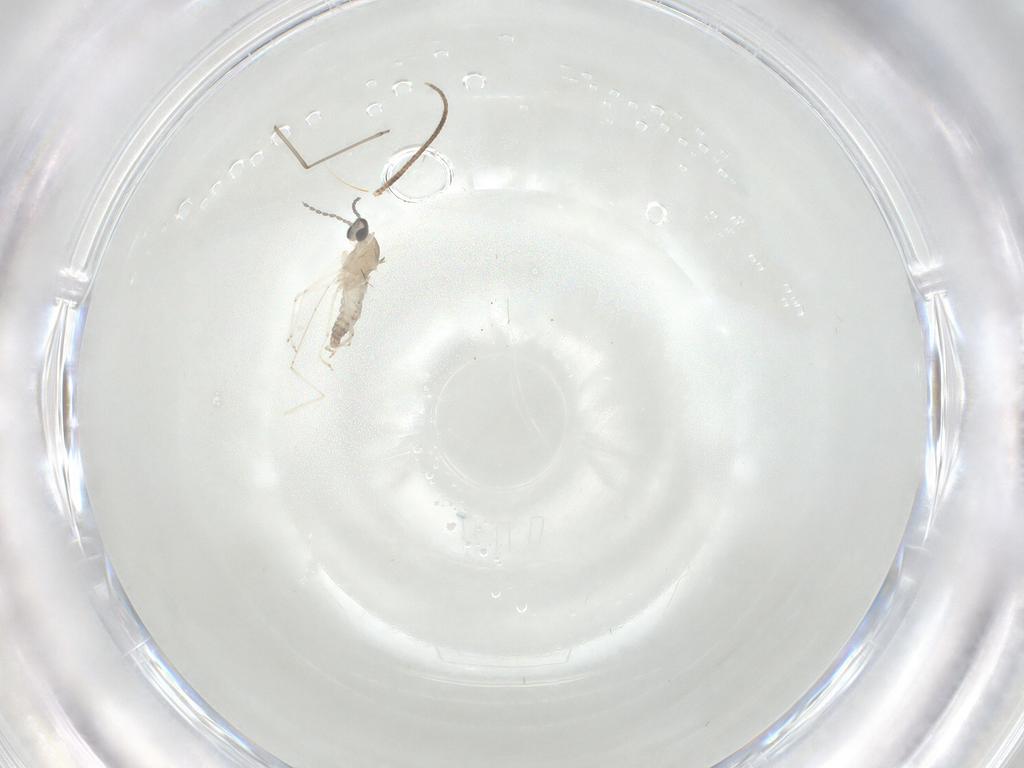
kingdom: Animalia
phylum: Arthropoda
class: Insecta
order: Diptera
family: Cecidomyiidae
